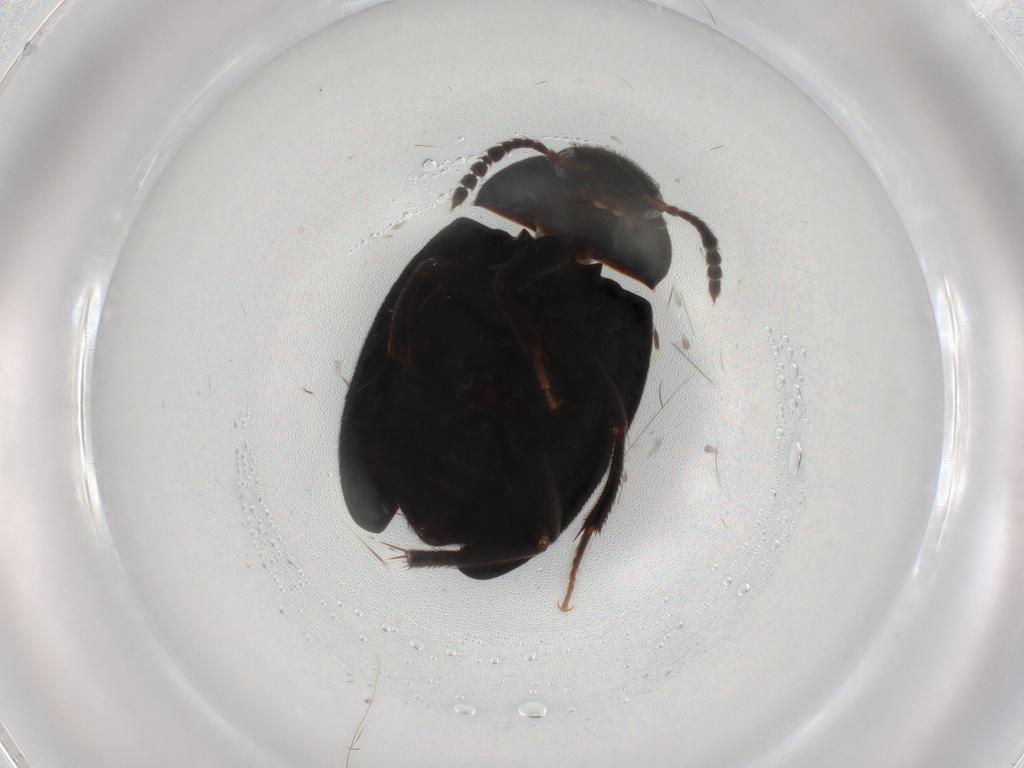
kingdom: Animalia
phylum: Arthropoda
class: Insecta
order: Coleoptera
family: Leiodidae
